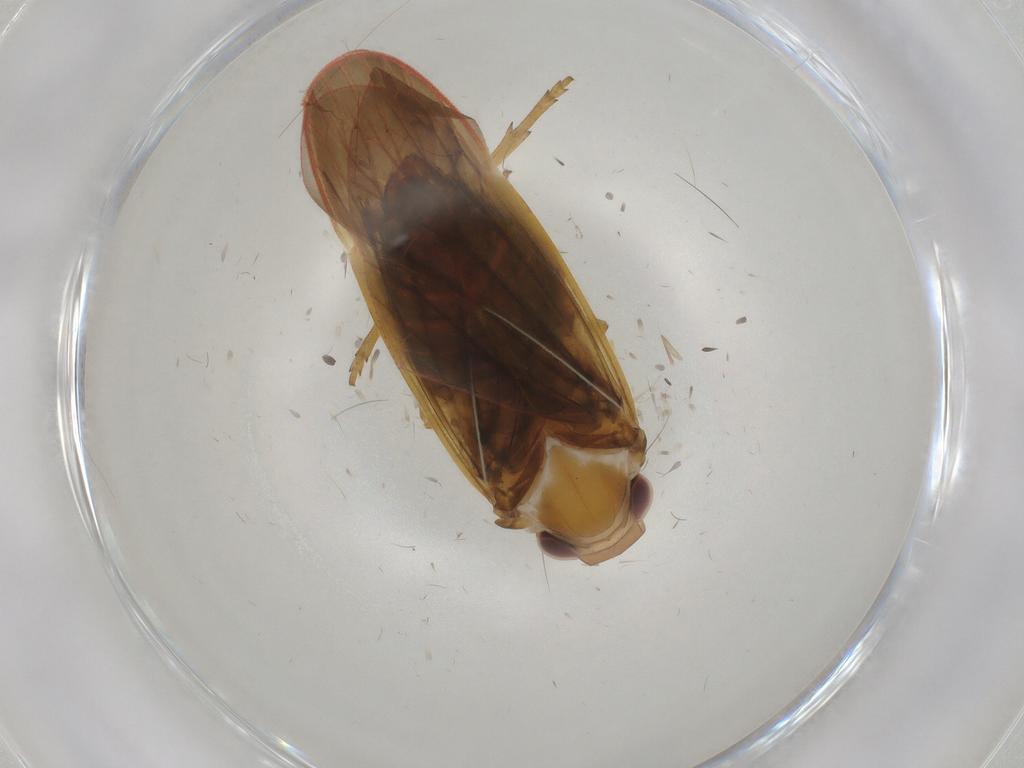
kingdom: Animalia
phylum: Arthropoda
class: Insecta
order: Hemiptera
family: Achilidae
